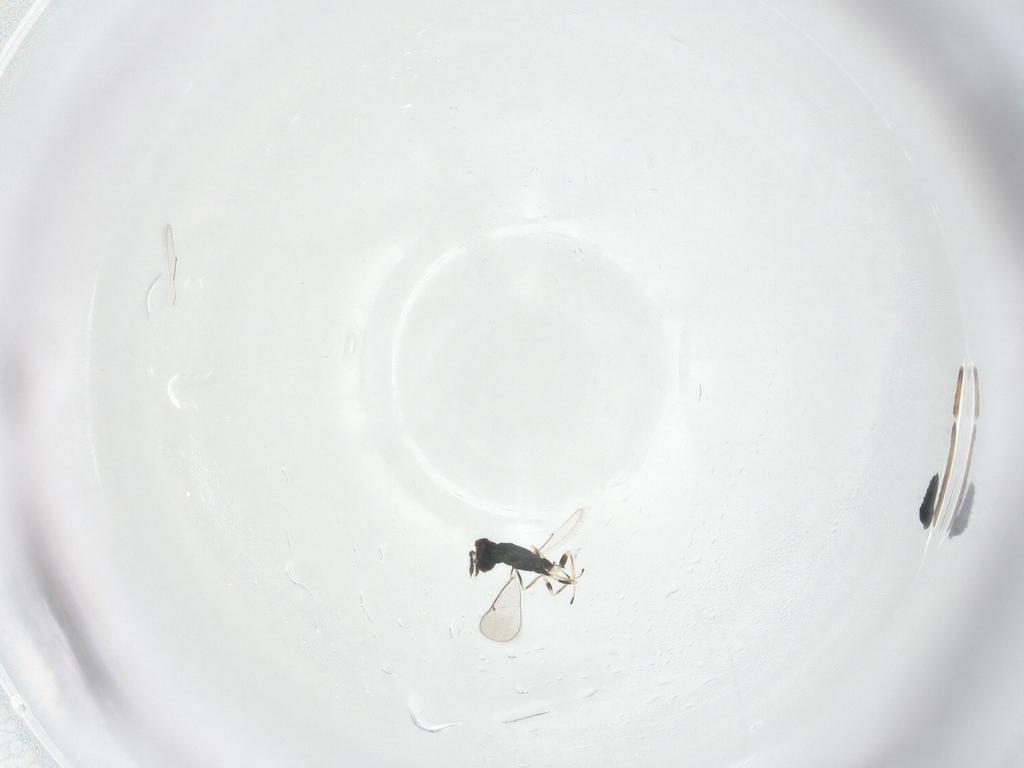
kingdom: Animalia
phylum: Arthropoda
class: Insecta
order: Hymenoptera
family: Eulophidae
